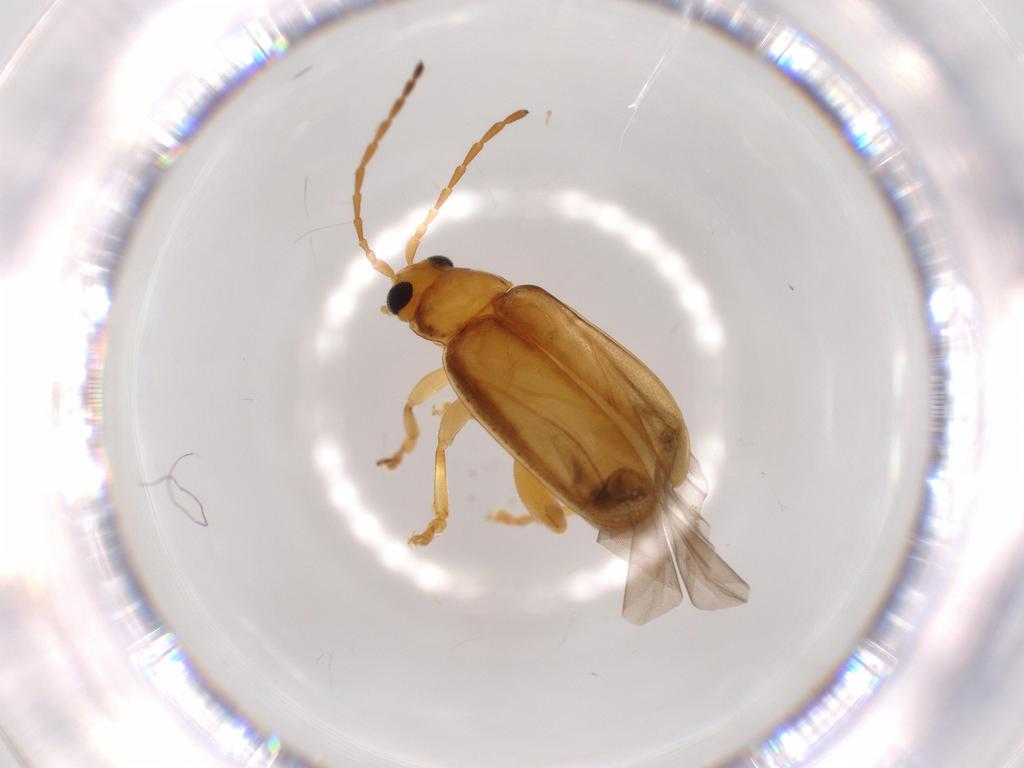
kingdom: Animalia
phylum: Arthropoda
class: Insecta
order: Coleoptera
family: Chrysomelidae
